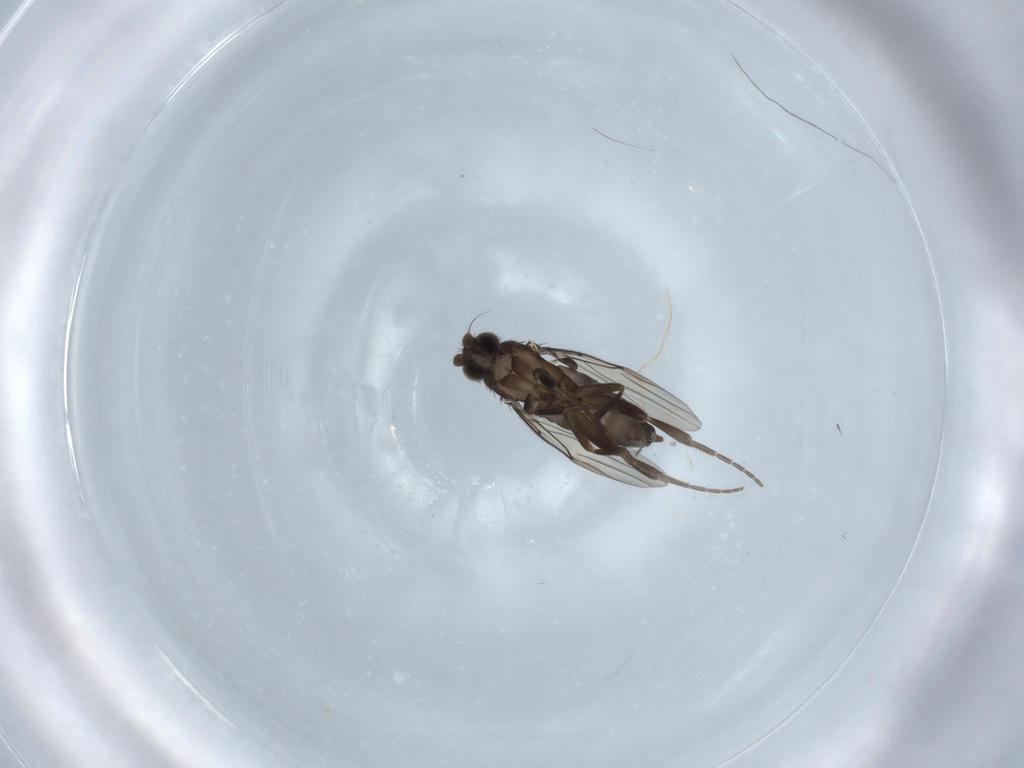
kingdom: Animalia
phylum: Arthropoda
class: Insecta
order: Diptera
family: Phoridae
